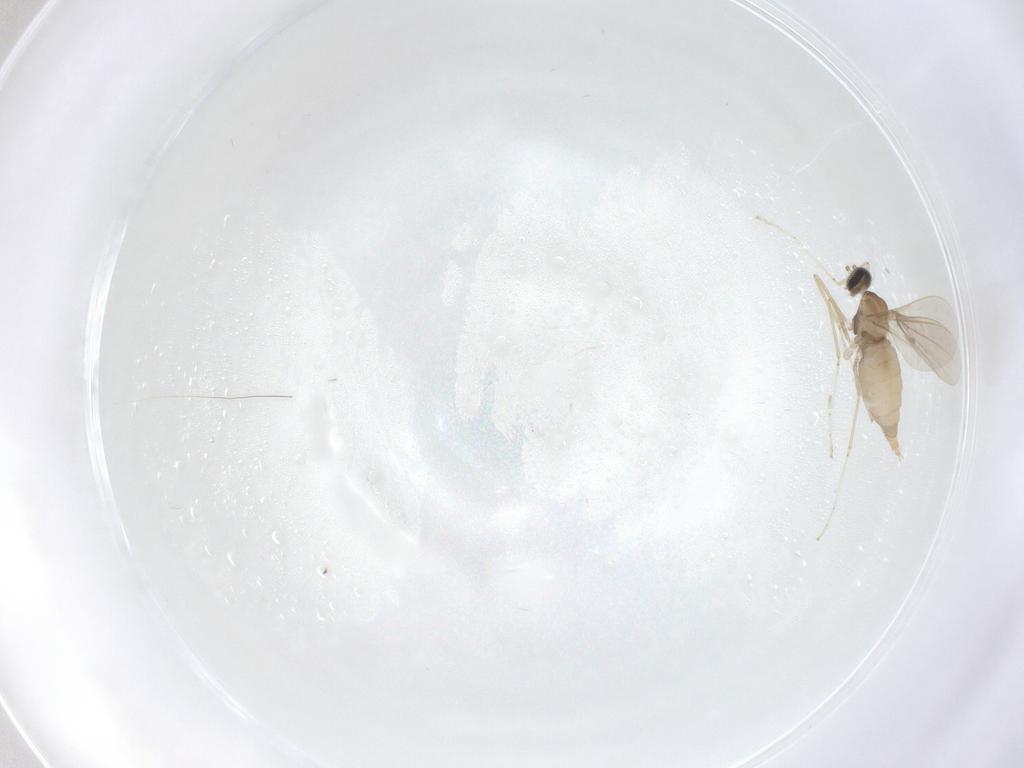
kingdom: Animalia
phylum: Arthropoda
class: Insecta
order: Diptera
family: Cecidomyiidae
